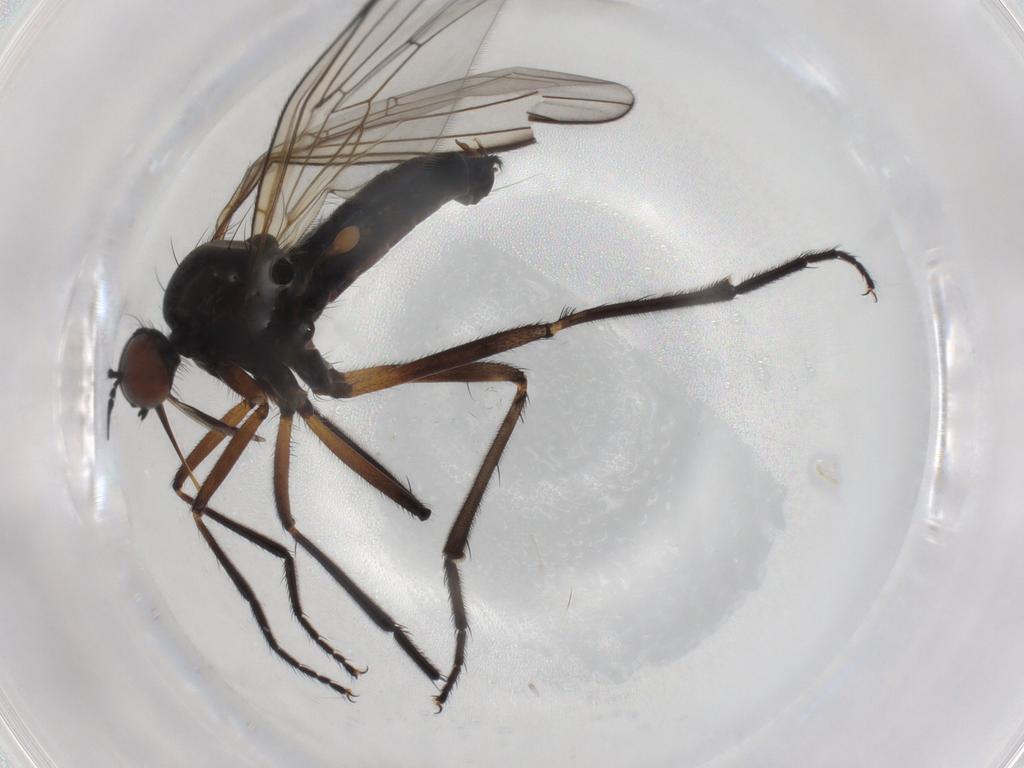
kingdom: Animalia
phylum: Arthropoda
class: Insecta
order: Diptera
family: Empididae
